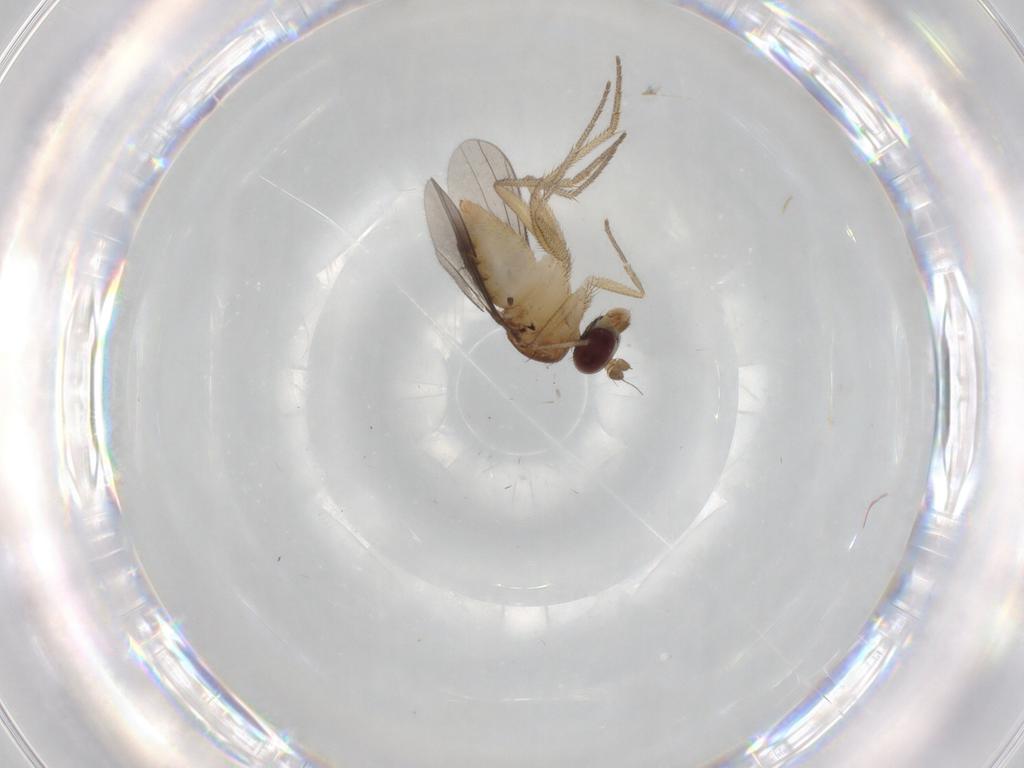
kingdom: Animalia
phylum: Arthropoda
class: Insecta
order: Diptera
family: Dolichopodidae
